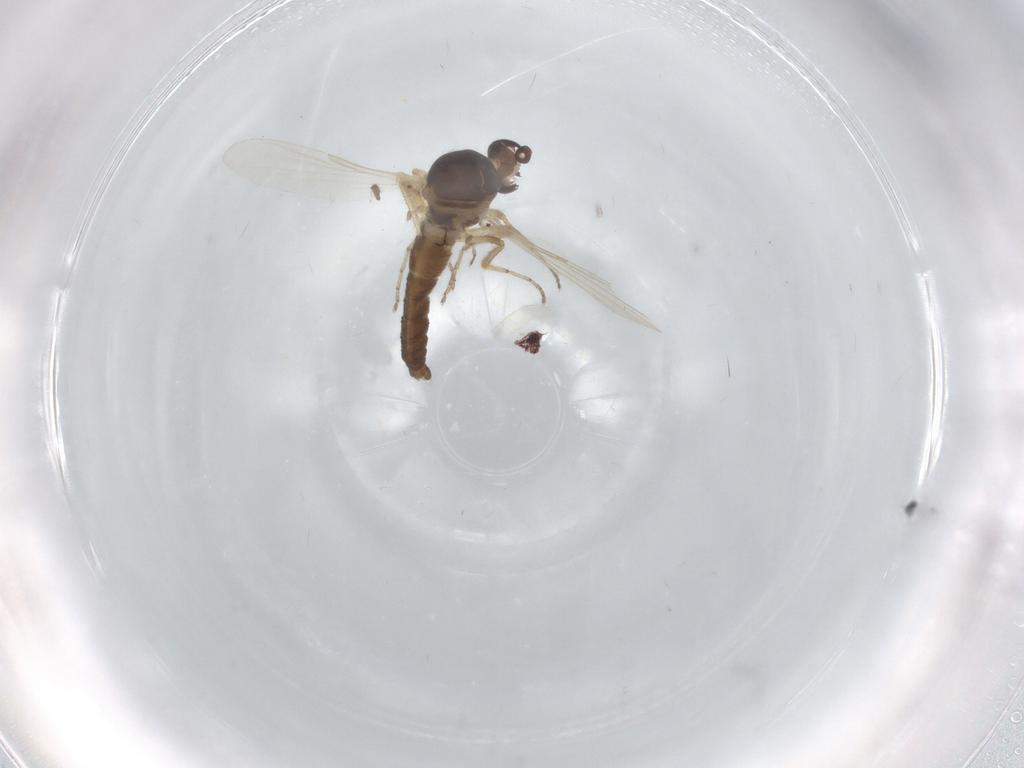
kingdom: Animalia
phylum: Arthropoda
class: Insecta
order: Diptera
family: Ceratopogonidae
